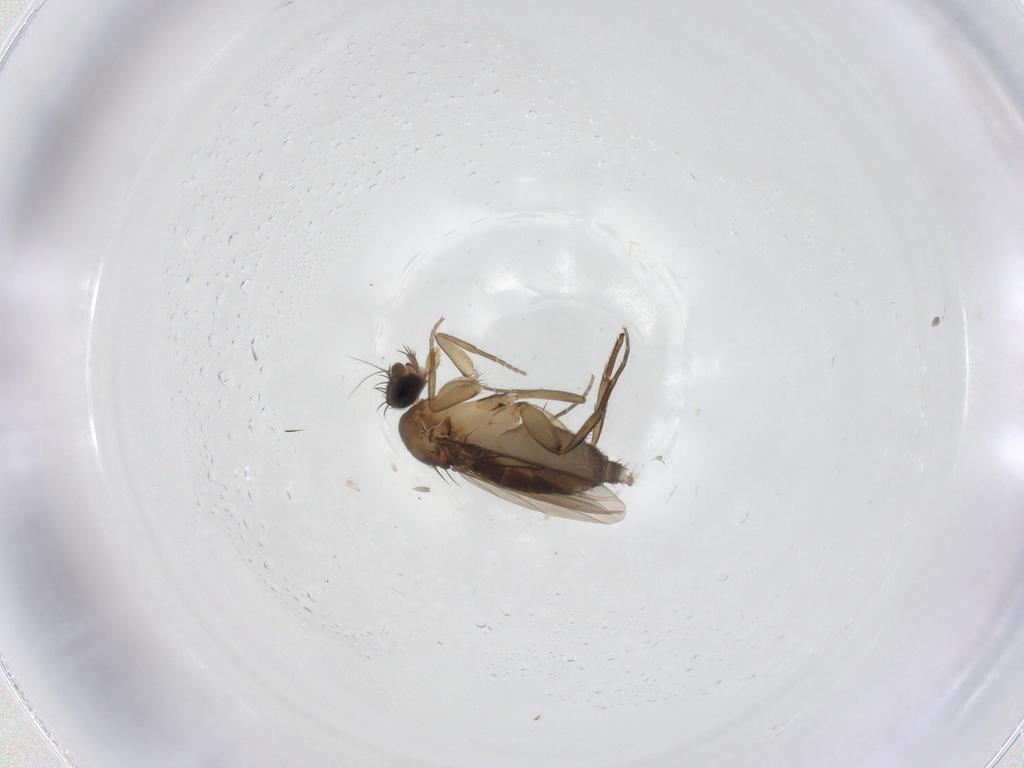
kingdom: Animalia
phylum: Arthropoda
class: Insecta
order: Diptera
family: Phoridae
